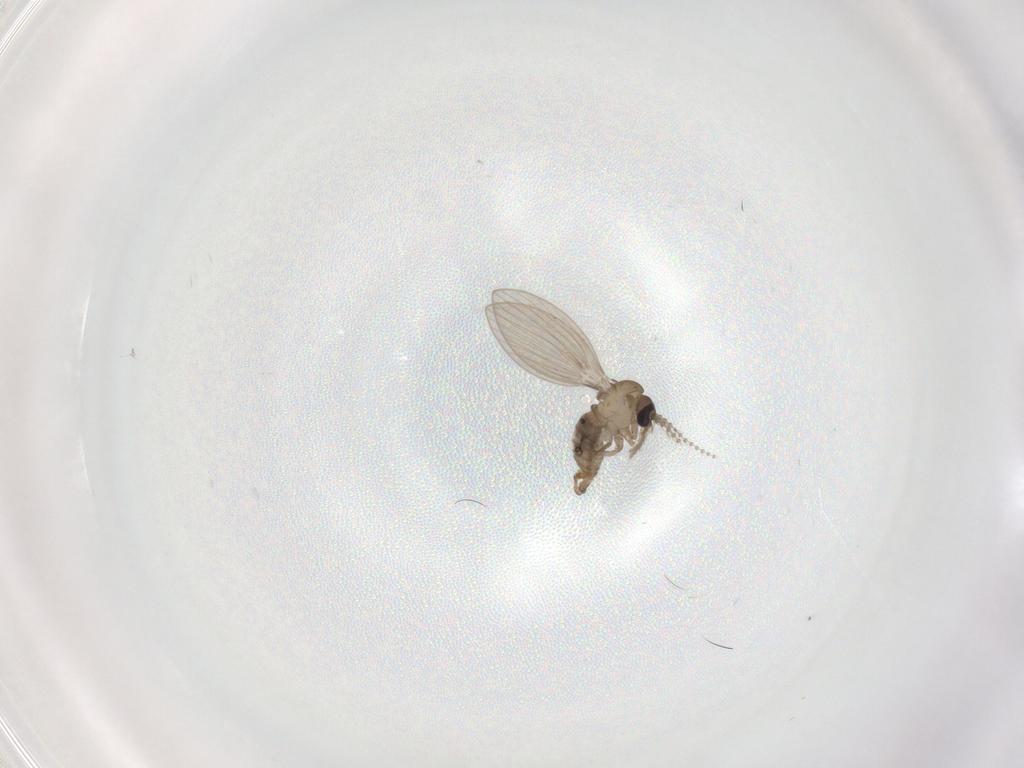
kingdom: Animalia
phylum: Arthropoda
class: Insecta
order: Diptera
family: Psychodidae
